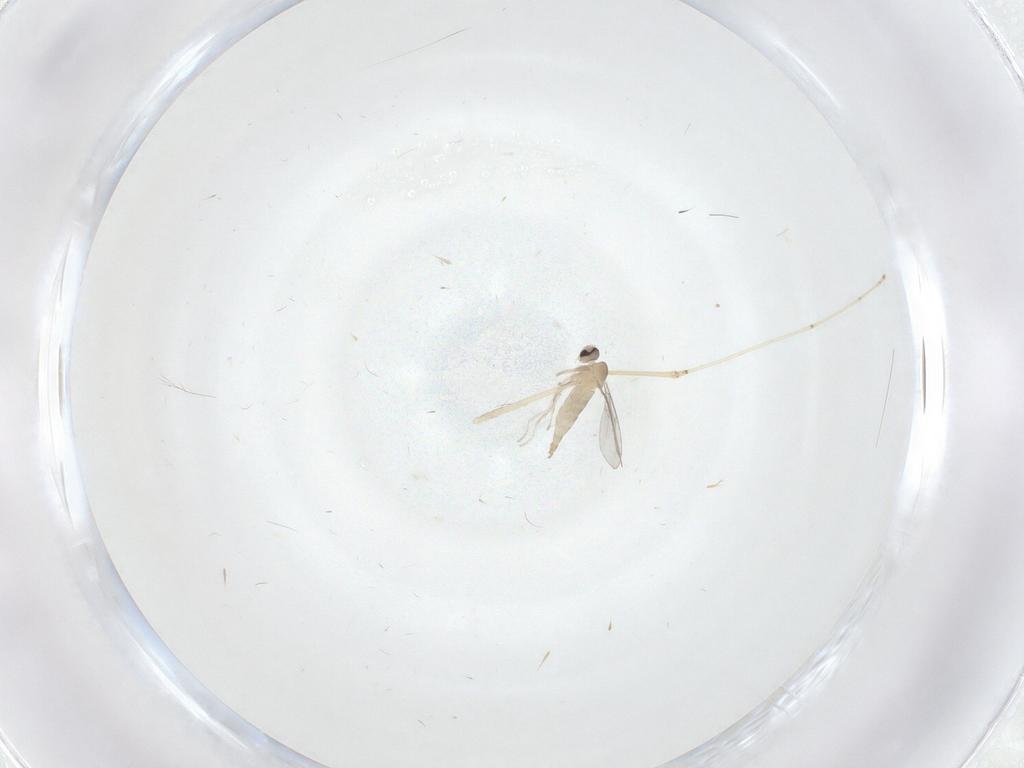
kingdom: Animalia
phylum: Arthropoda
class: Insecta
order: Diptera
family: Cecidomyiidae
